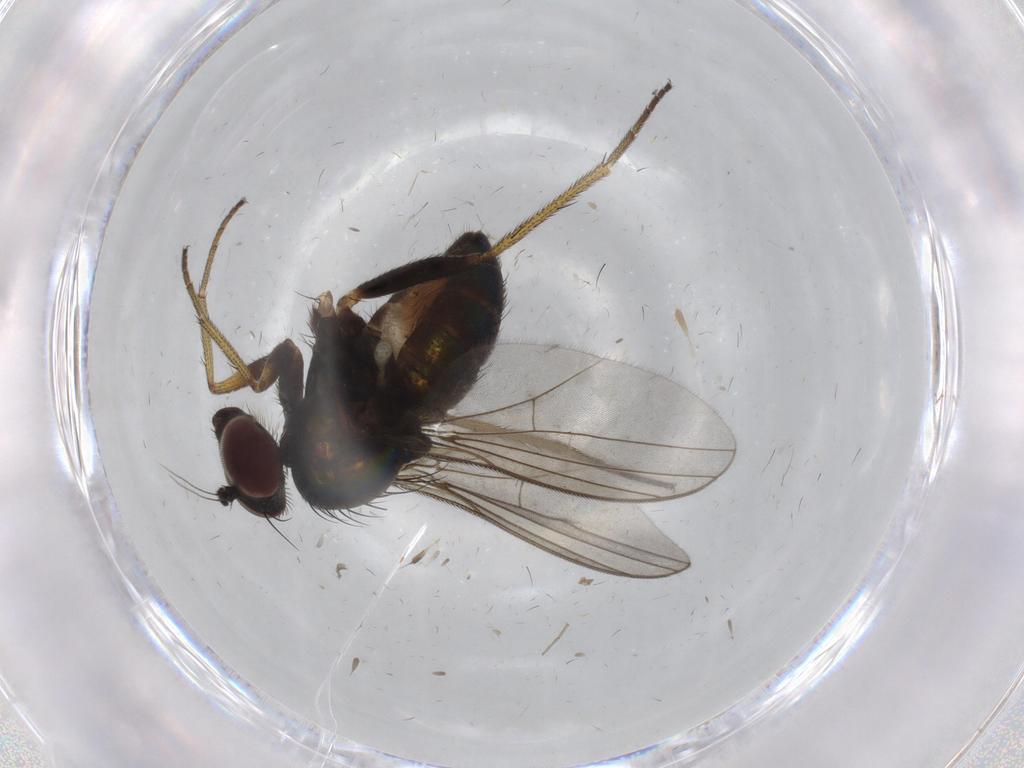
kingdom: Animalia
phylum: Arthropoda
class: Insecta
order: Diptera
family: Dolichopodidae
